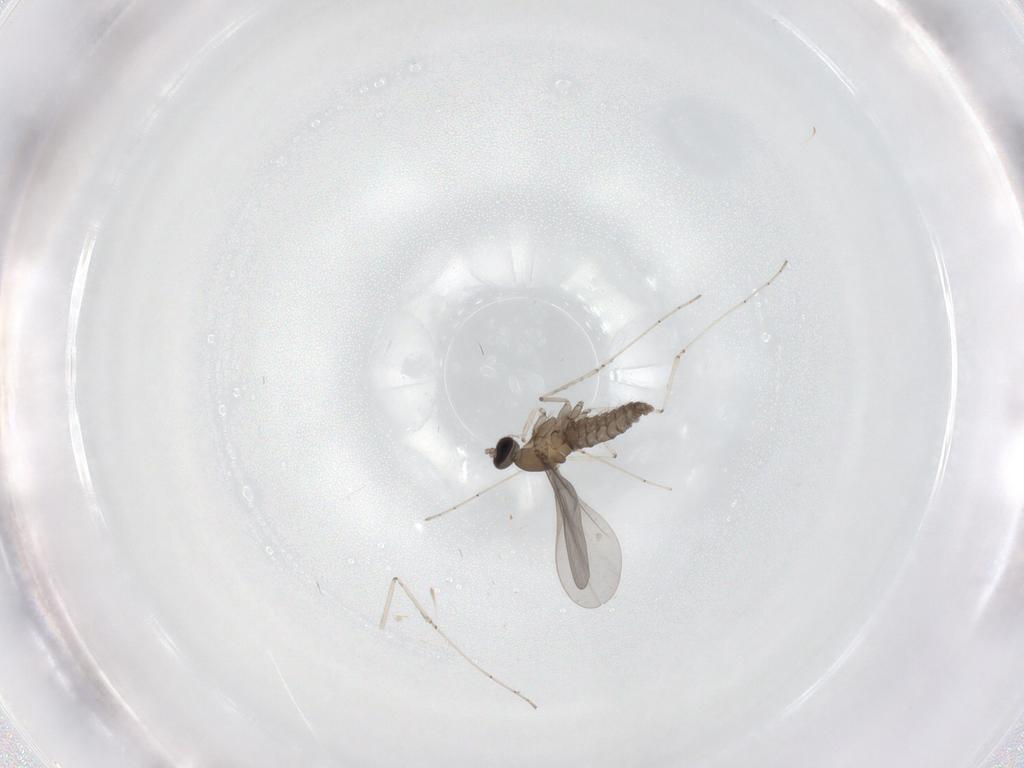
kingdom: Animalia
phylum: Arthropoda
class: Insecta
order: Diptera
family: Cecidomyiidae
